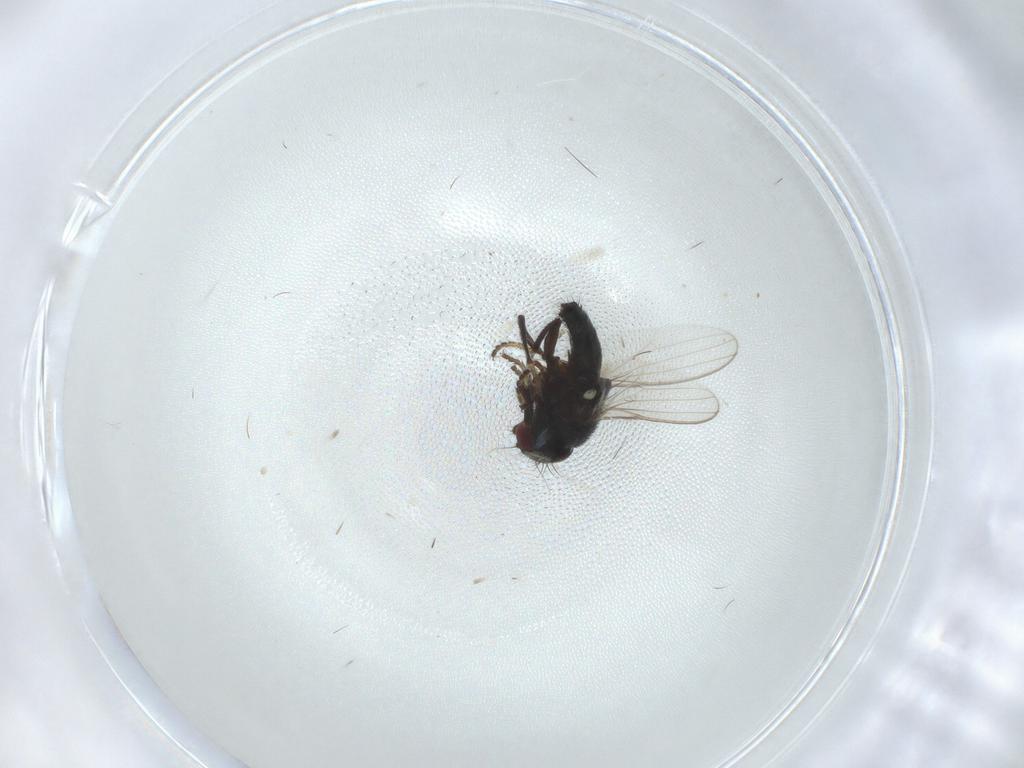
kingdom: Animalia
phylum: Arthropoda
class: Insecta
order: Diptera
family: Milichiidae
